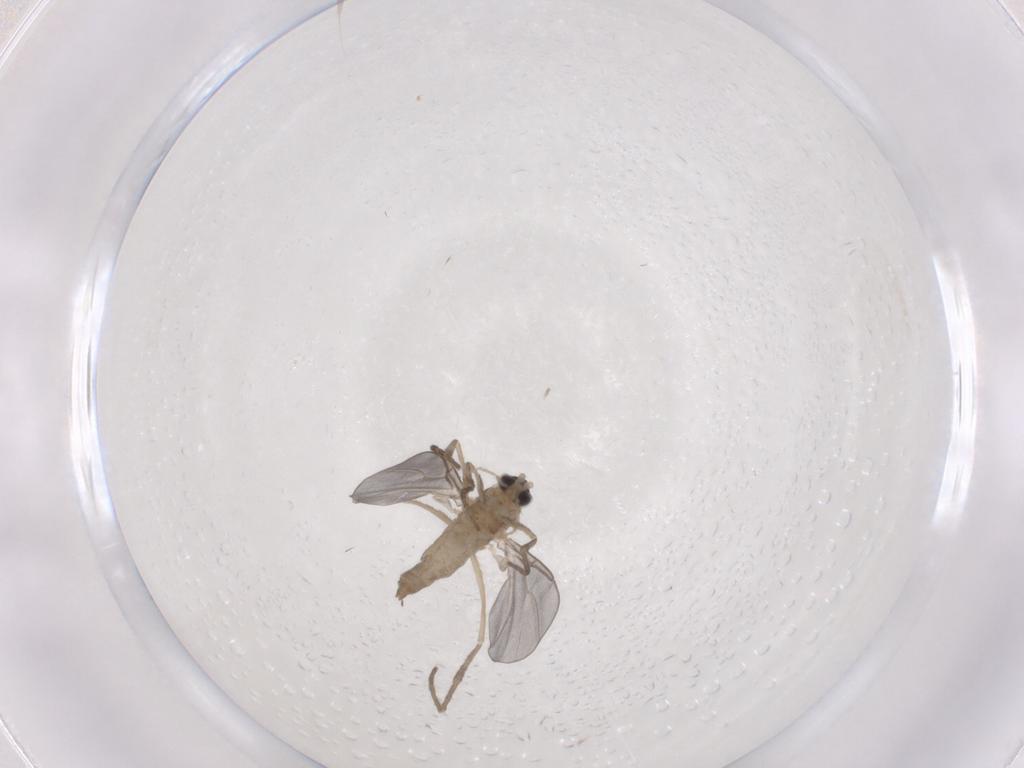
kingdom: Animalia
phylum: Arthropoda
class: Insecta
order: Diptera
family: Cecidomyiidae
